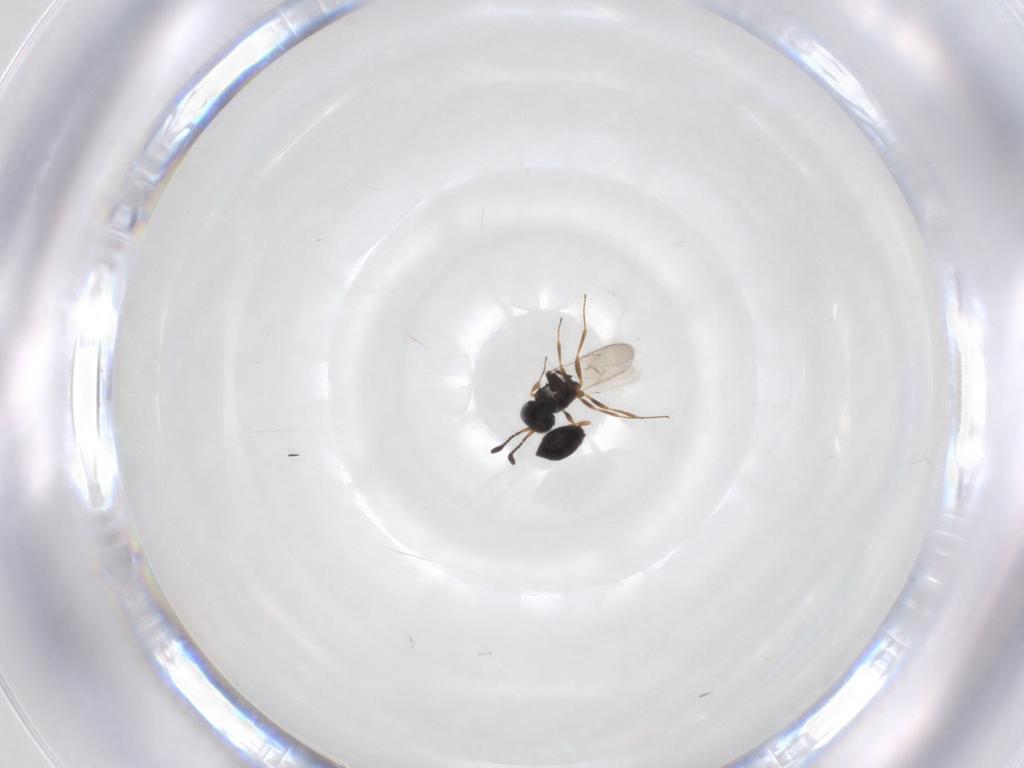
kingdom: Animalia
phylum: Arthropoda
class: Insecta
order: Hymenoptera
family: Scelionidae
